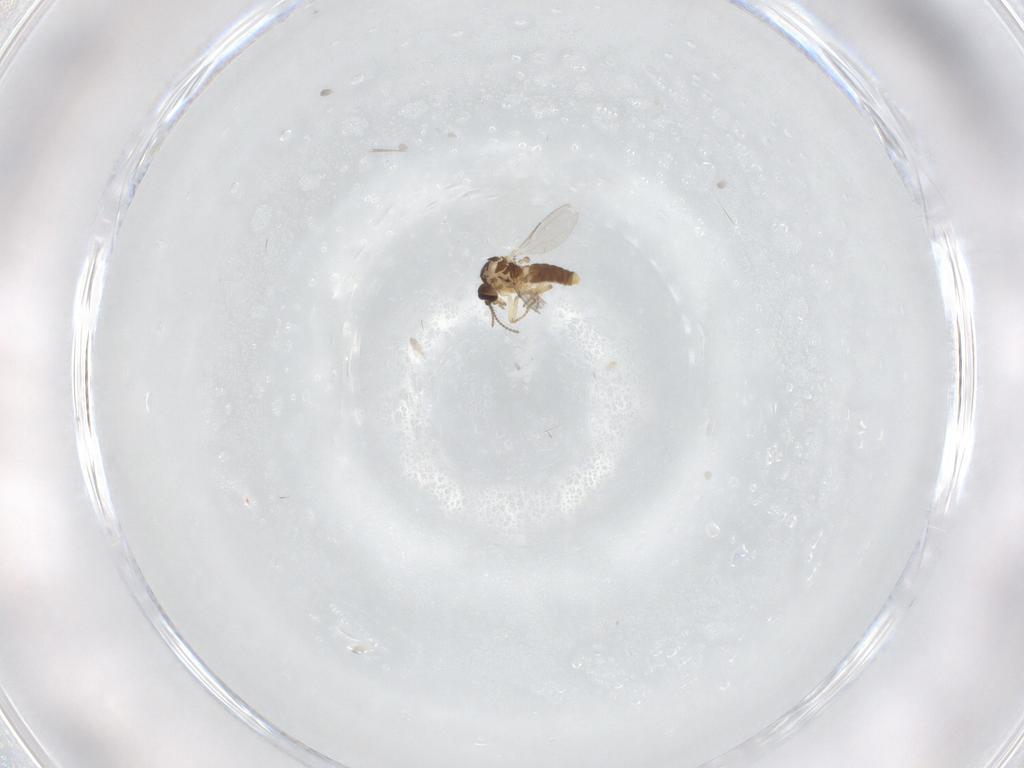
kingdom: Animalia
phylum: Arthropoda
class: Insecta
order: Diptera
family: Ceratopogonidae
